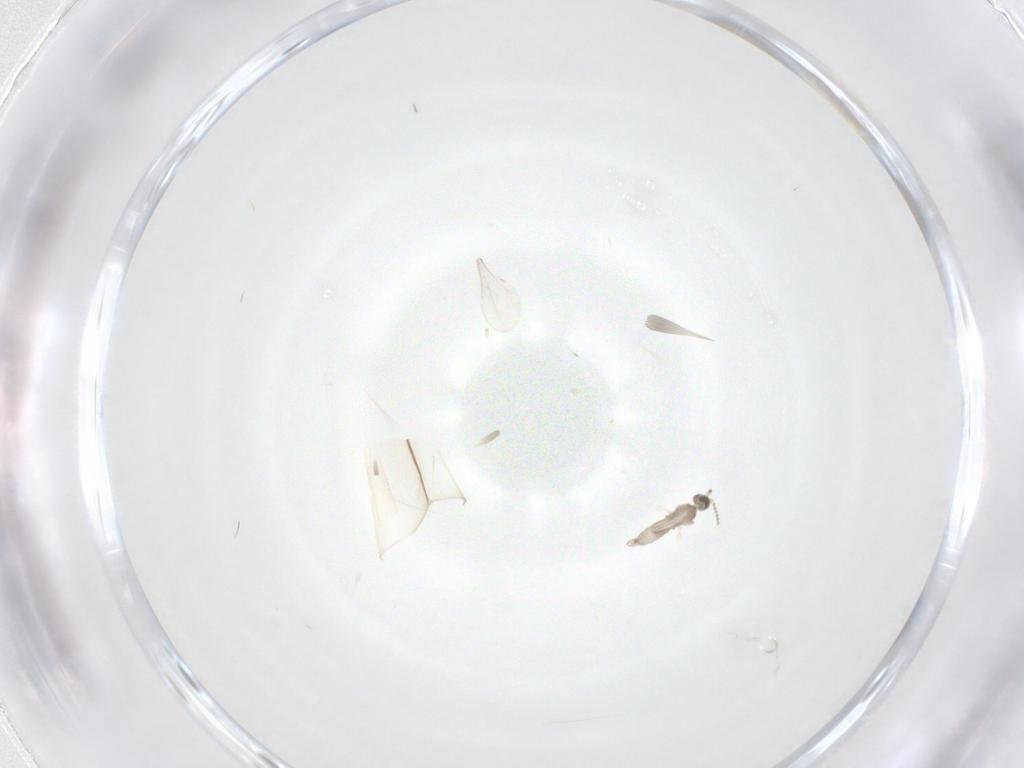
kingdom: Animalia
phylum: Arthropoda
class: Insecta
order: Diptera
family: Cecidomyiidae
